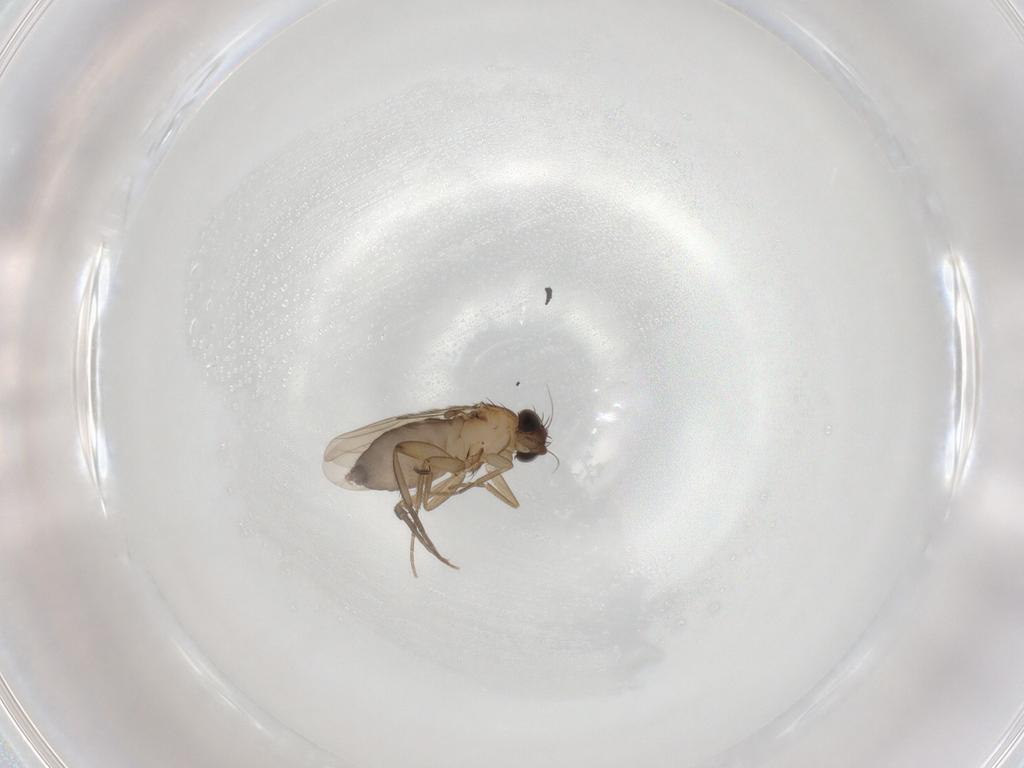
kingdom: Animalia
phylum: Arthropoda
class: Insecta
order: Diptera
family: Phoridae
